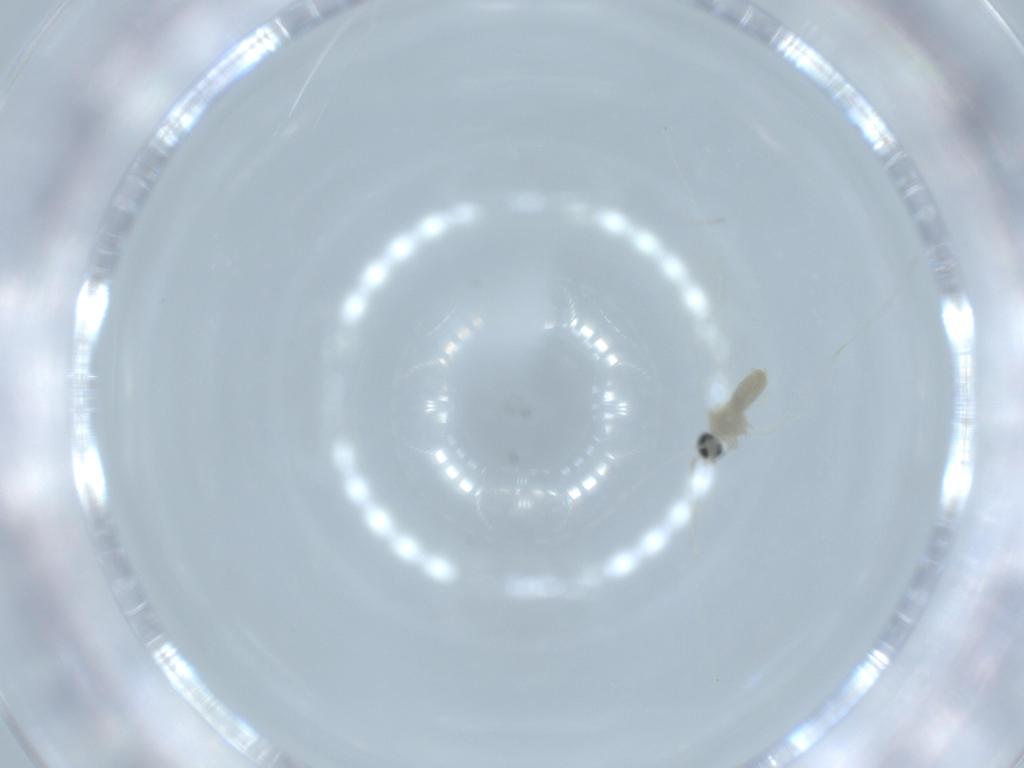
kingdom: Animalia
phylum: Arthropoda
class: Insecta
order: Diptera
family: Cecidomyiidae
